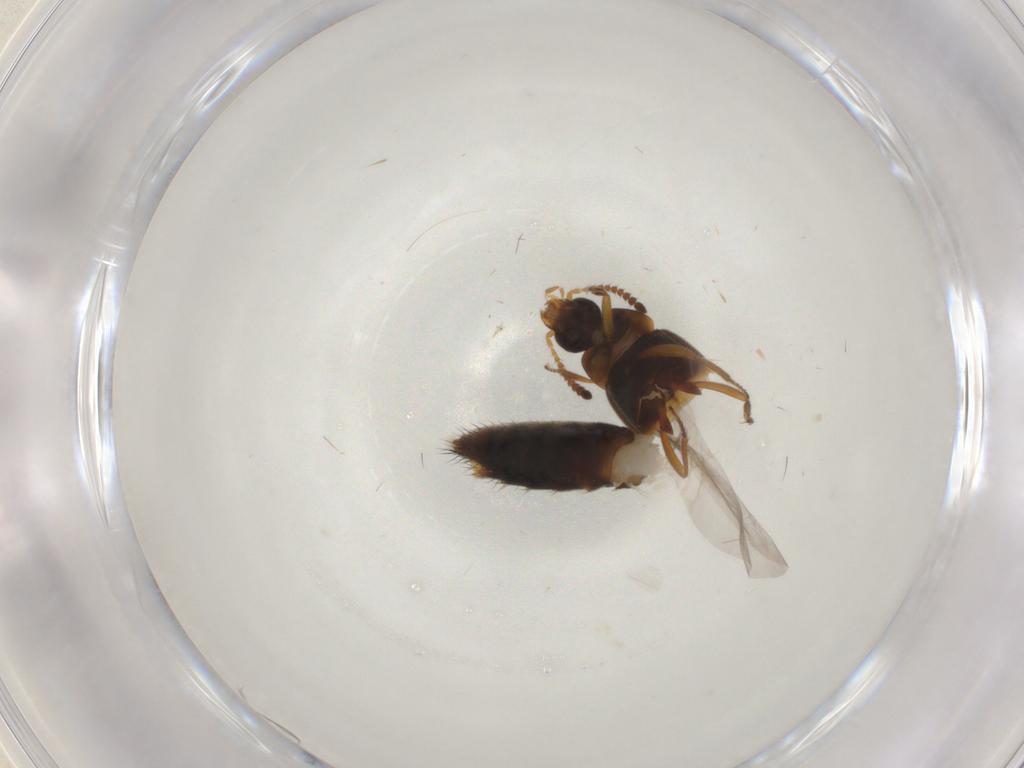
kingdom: Animalia
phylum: Arthropoda
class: Insecta
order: Coleoptera
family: Staphylinidae
